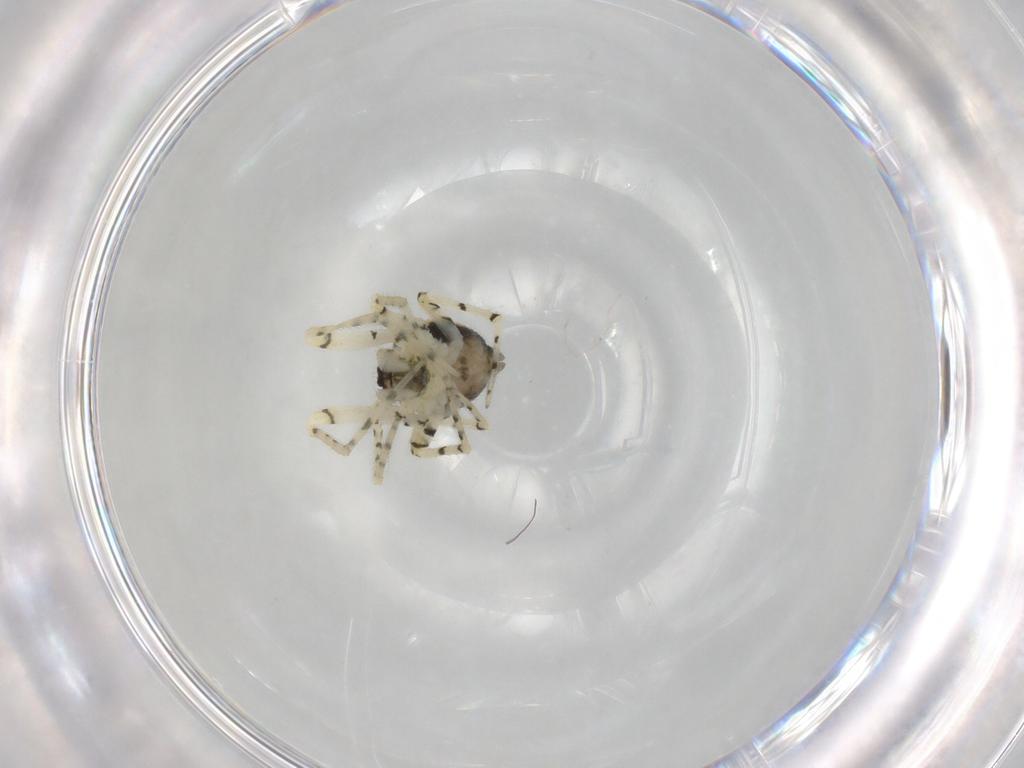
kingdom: Animalia
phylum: Arthropoda
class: Arachnida
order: Araneae
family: Theridiidae
